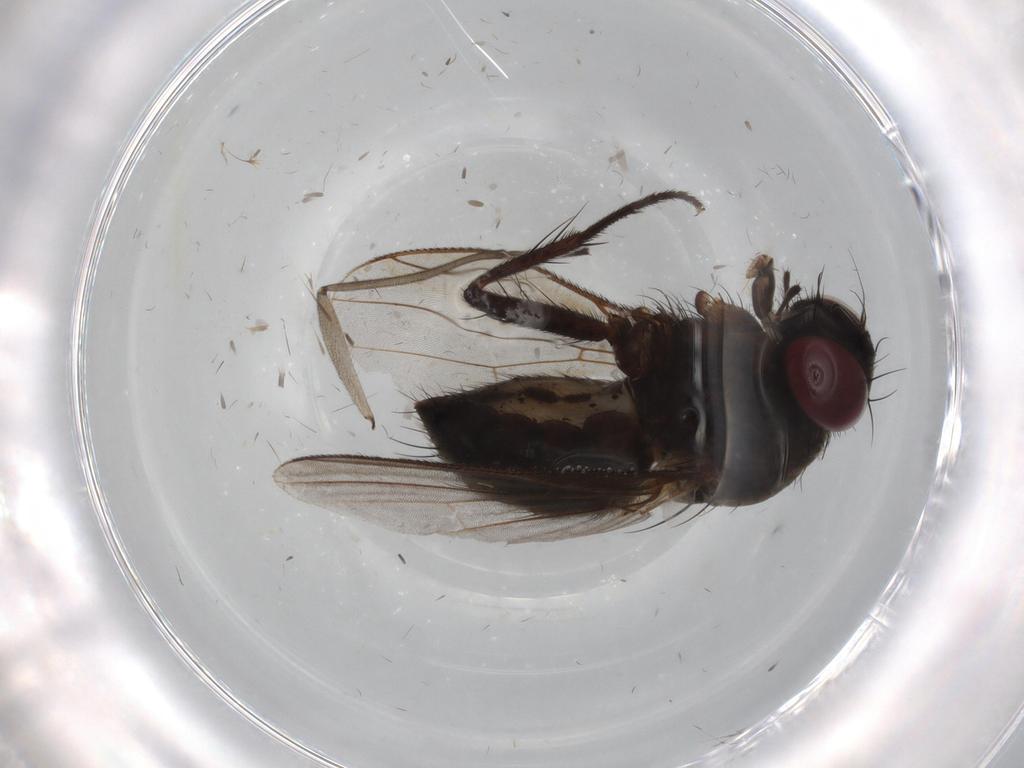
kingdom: Animalia
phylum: Arthropoda
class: Insecta
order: Diptera
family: Muscidae
